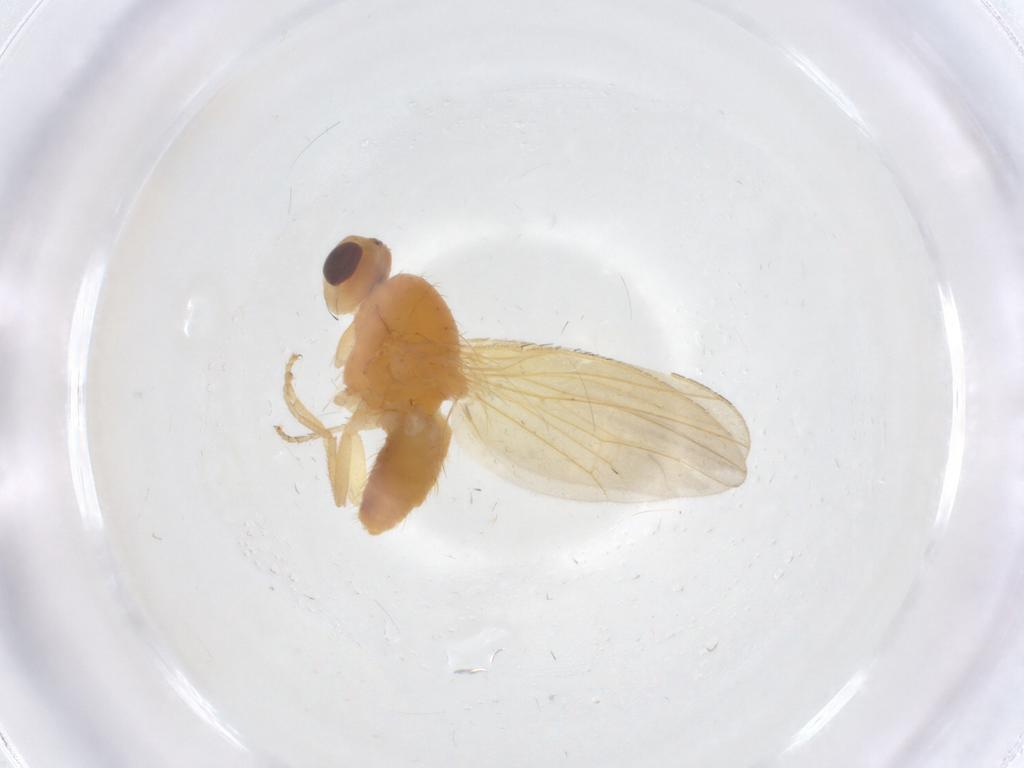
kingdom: Animalia
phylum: Arthropoda
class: Insecta
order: Diptera
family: Heleomyzidae
